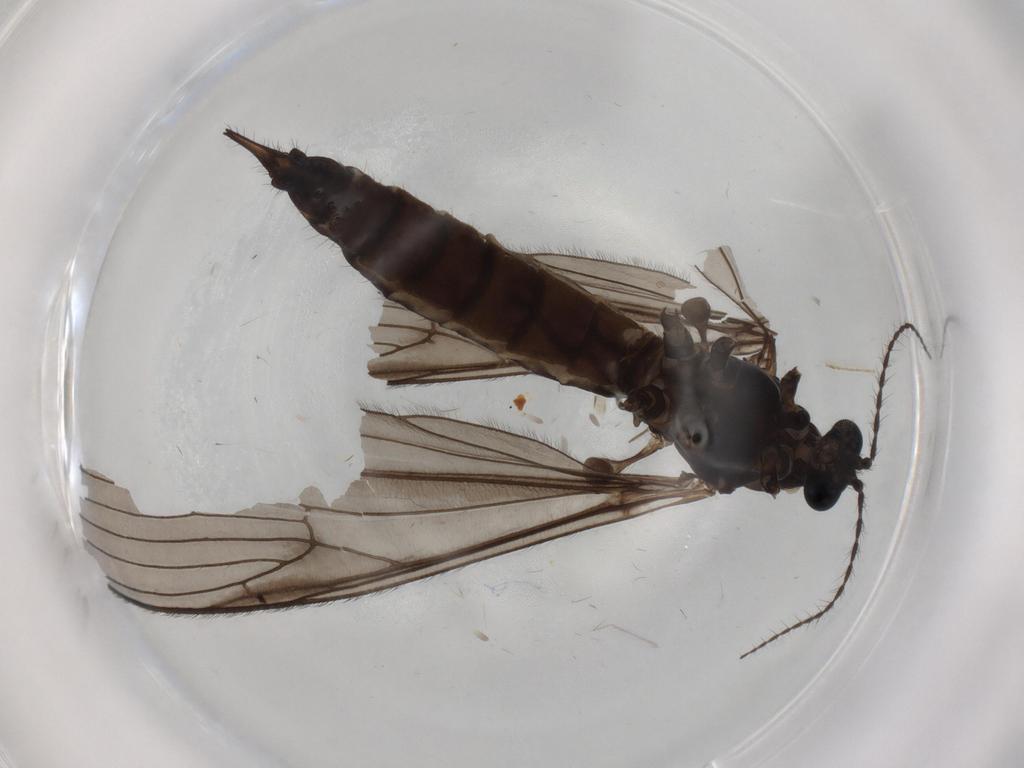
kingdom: Animalia
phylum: Arthropoda
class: Insecta
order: Diptera
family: Limoniidae
